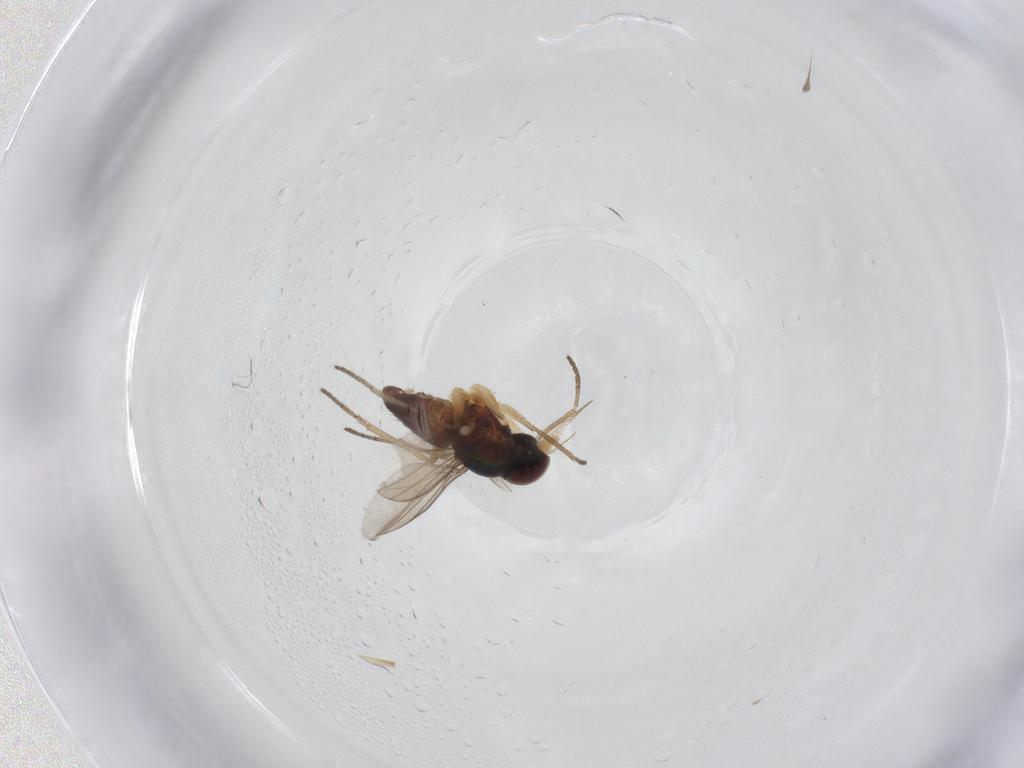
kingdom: Animalia
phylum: Arthropoda
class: Insecta
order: Diptera
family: Dolichopodidae
